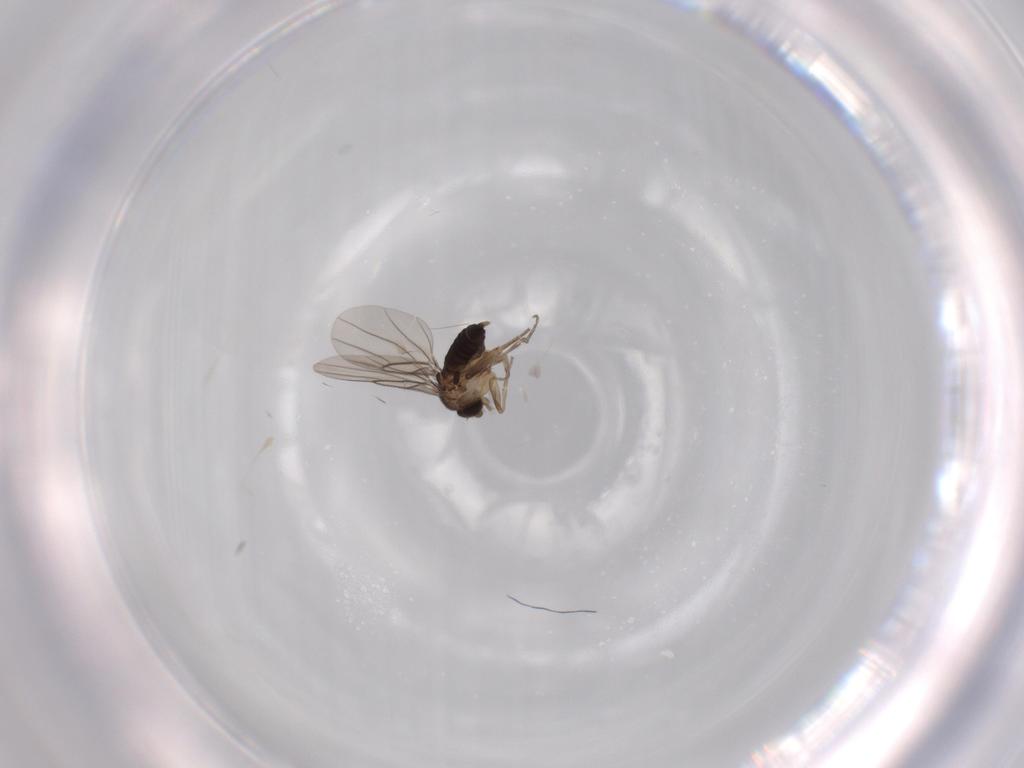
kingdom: Animalia
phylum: Arthropoda
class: Insecta
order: Diptera
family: Phoridae
